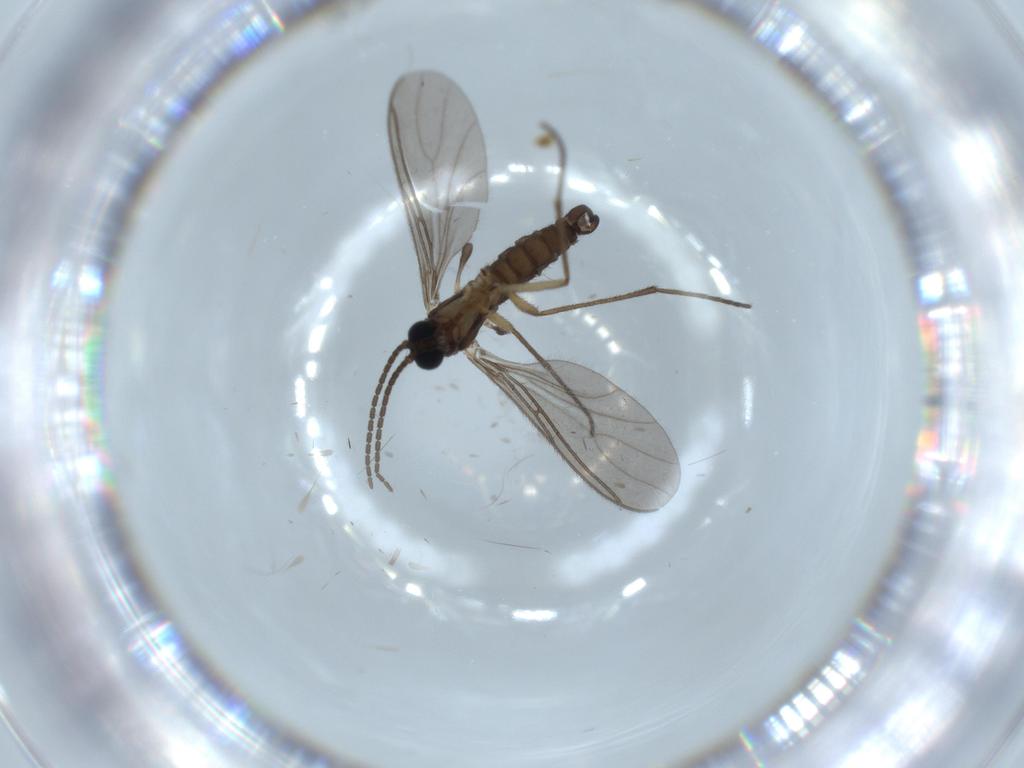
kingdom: Animalia
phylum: Arthropoda
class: Insecta
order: Diptera
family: Sciaridae
